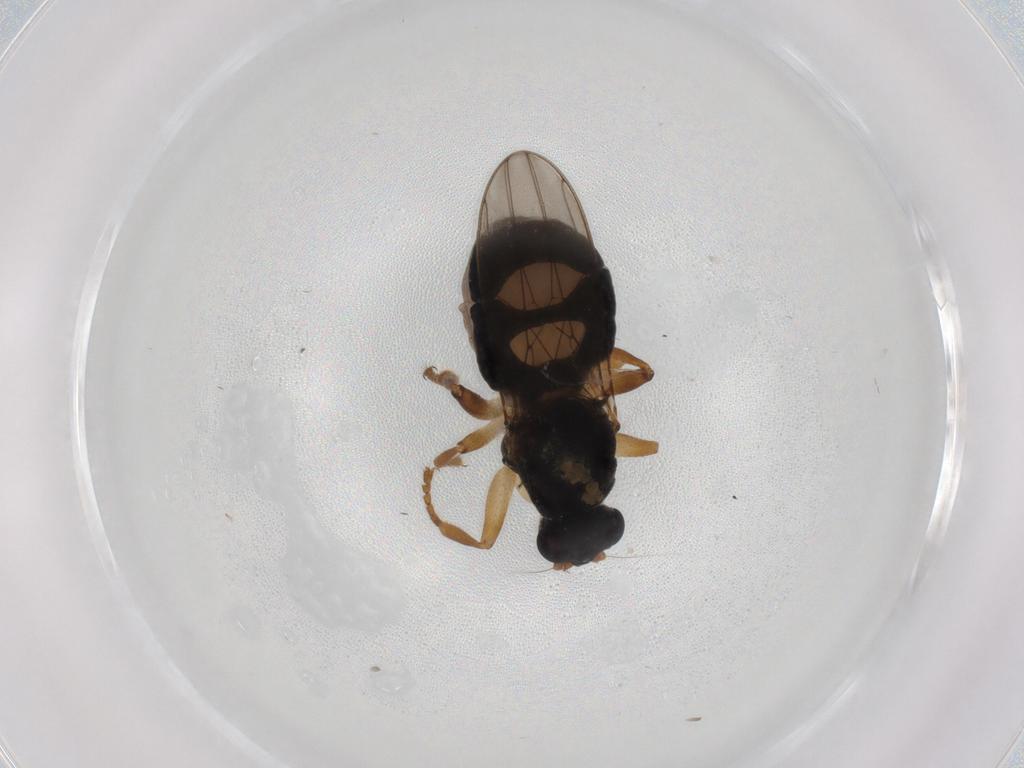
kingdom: Animalia
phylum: Arthropoda
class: Insecta
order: Diptera
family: Sphaeroceridae
